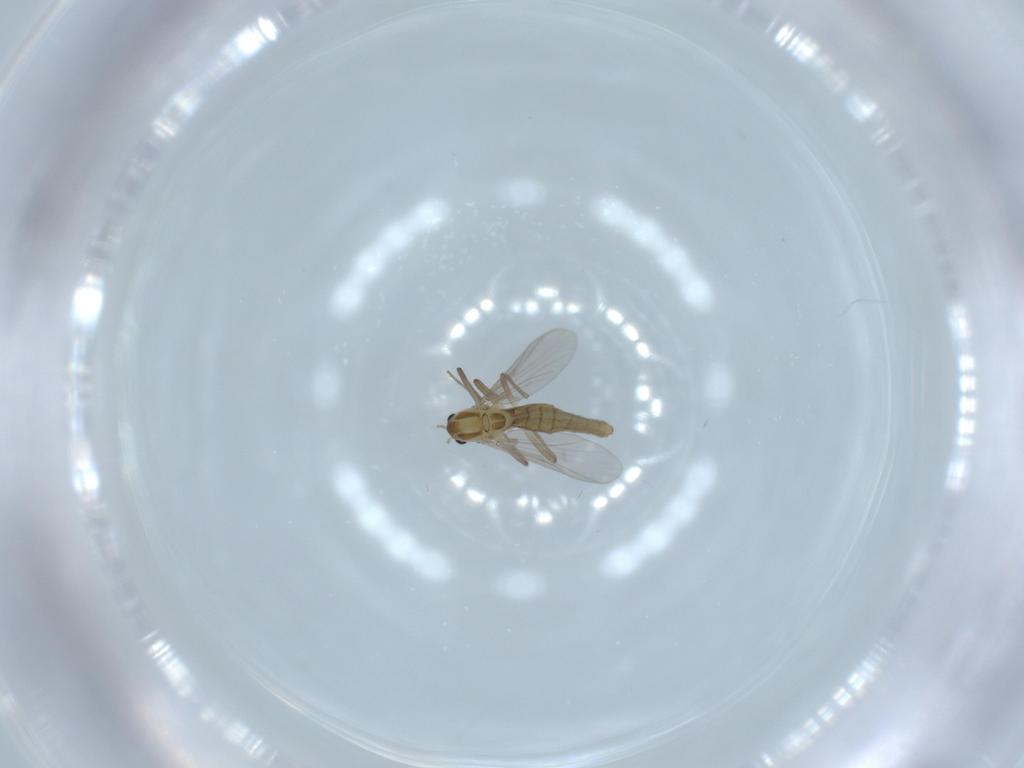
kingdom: Animalia
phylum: Arthropoda
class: Insecta
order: Diptera
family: Chironomidae
